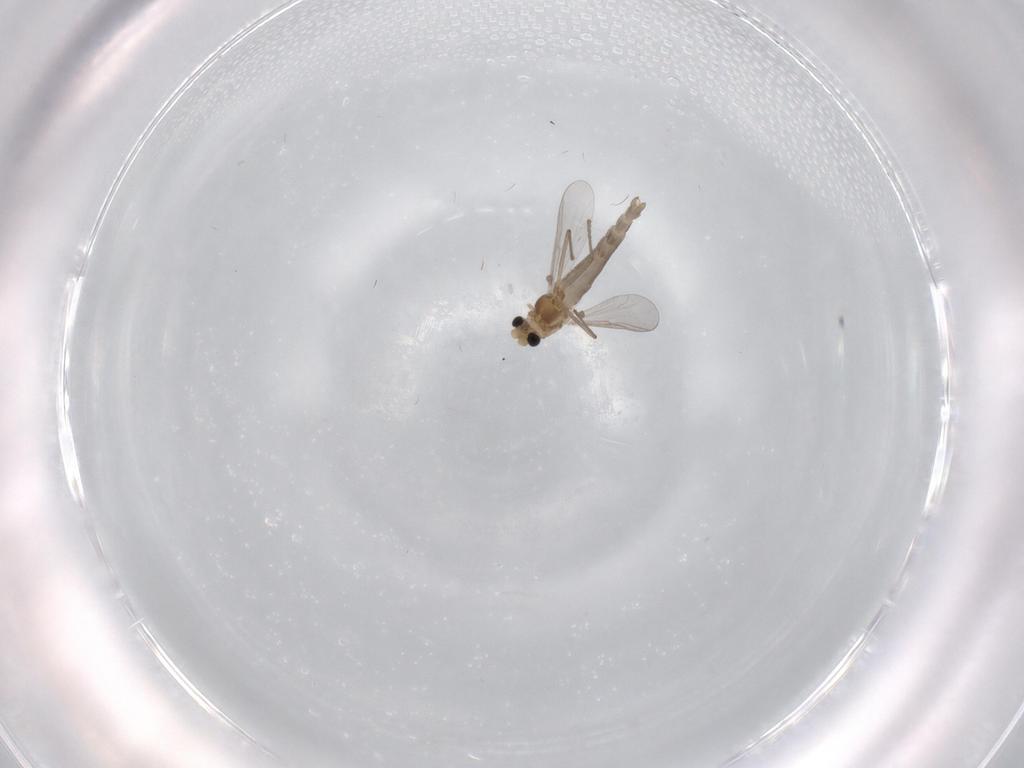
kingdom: Animalia
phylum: Arthropoda
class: Insecta
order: Diptera
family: Chironomidae
